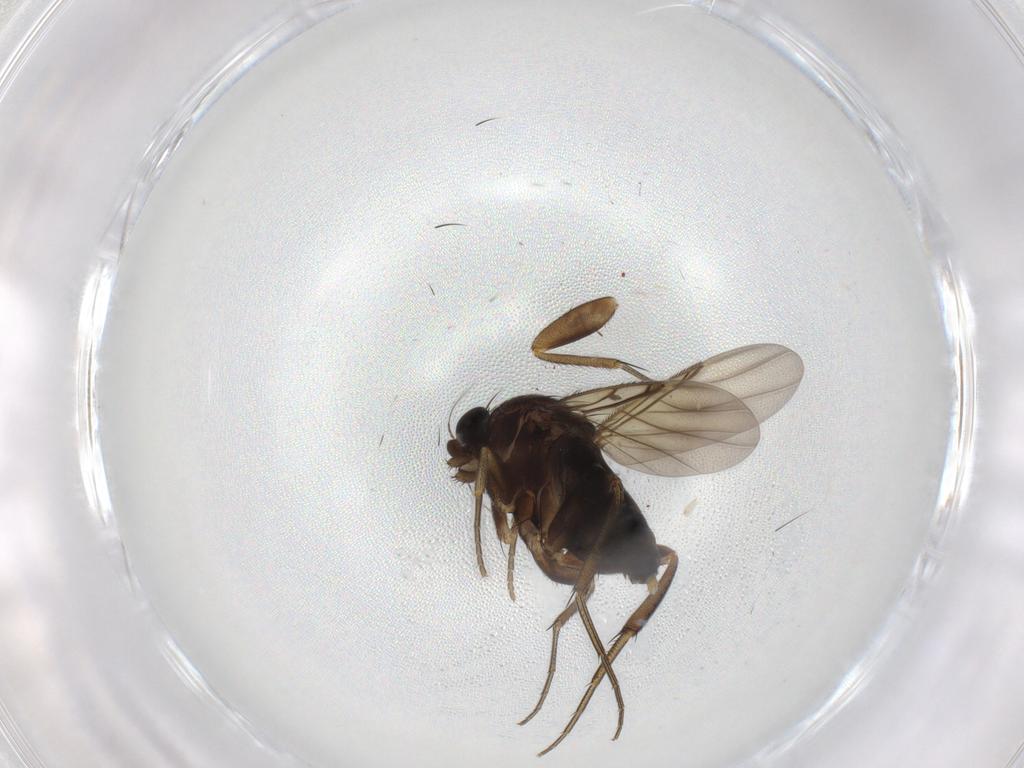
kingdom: Animalia
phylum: Arthropoda
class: Insecta
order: Diptera
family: Phoridae
